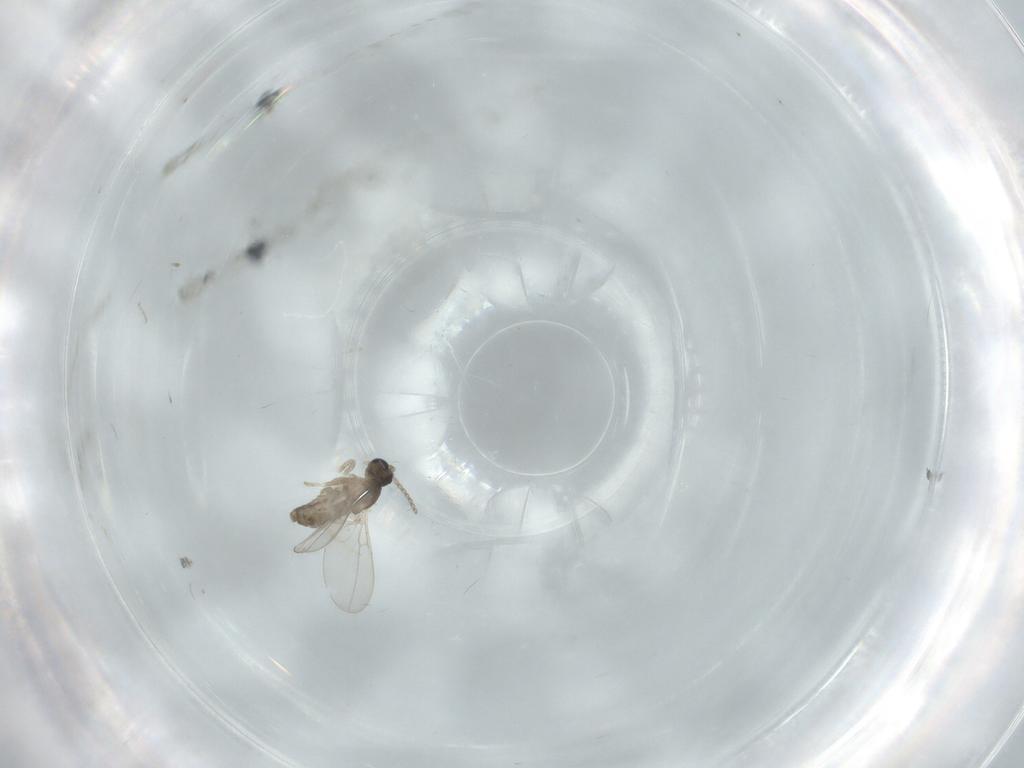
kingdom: Animalia
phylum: Arthropoda
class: Insecta
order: Diptera
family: Cecidomyiidae
